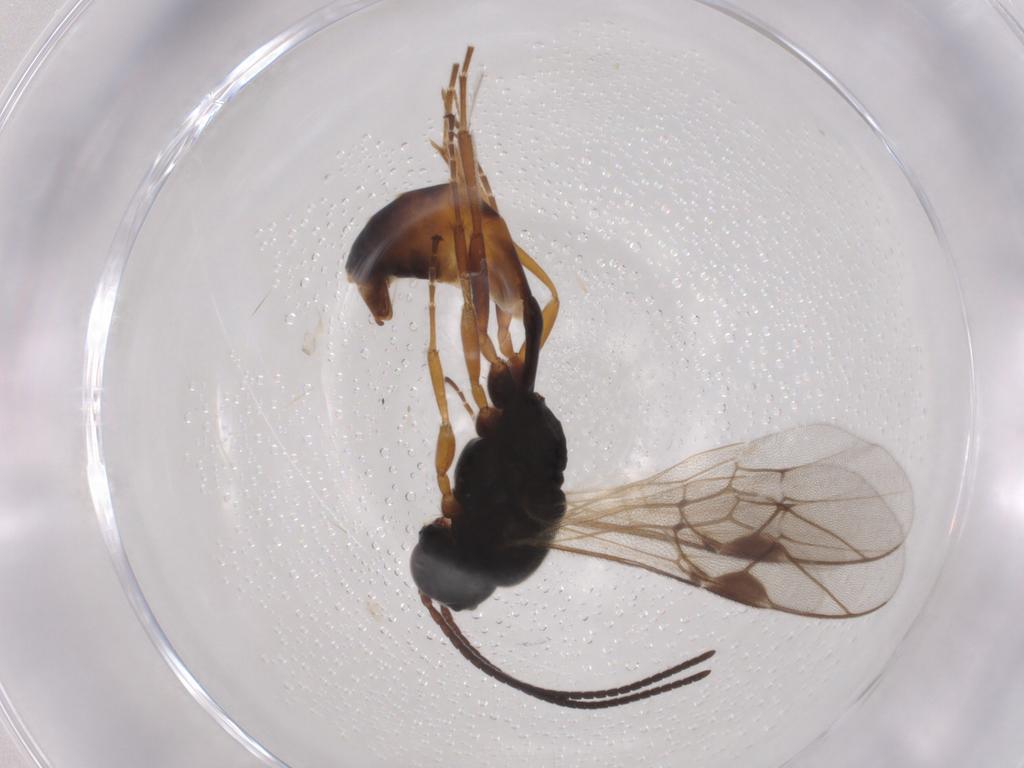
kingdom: Animalia
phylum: Arthropoda
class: Insecta
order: Hymenoptera
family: Ichneumonidae
